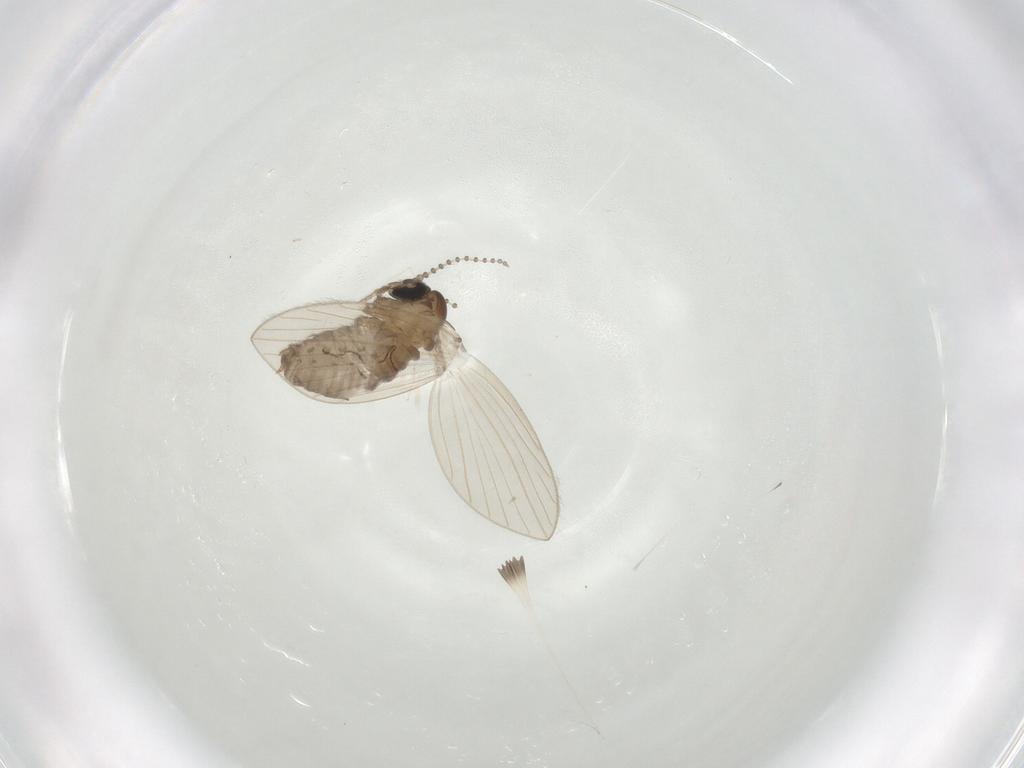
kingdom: Animalia
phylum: Arthropoda
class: Insecta
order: Diptera
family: Psychodidae
